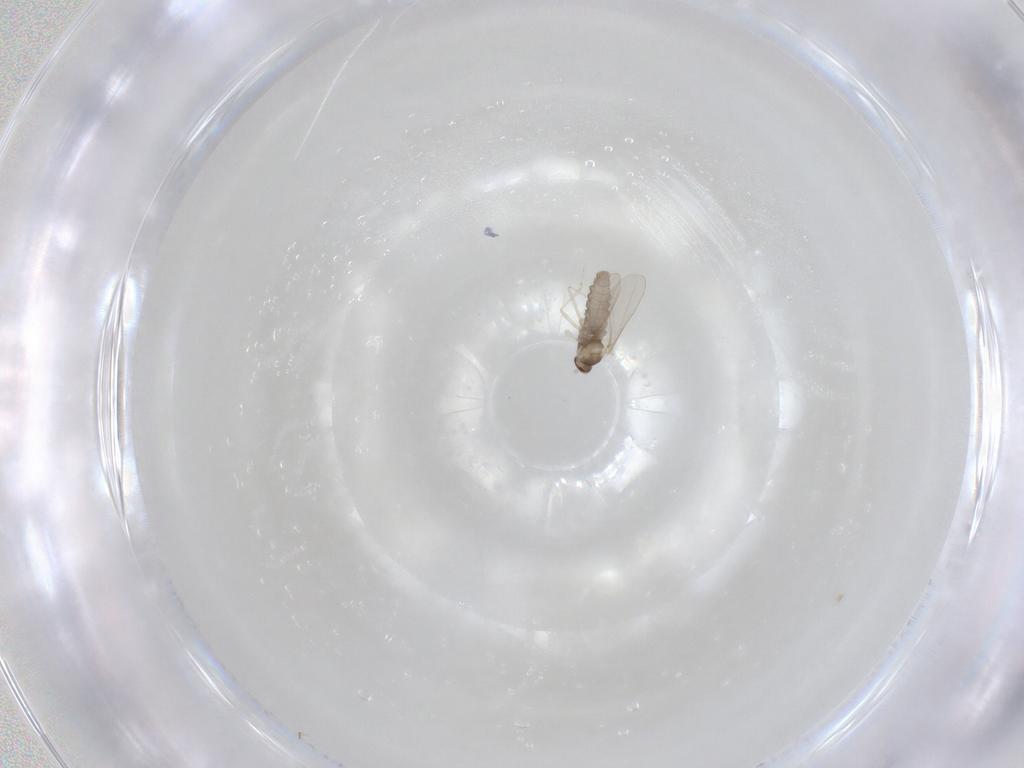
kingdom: Animalia
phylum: Arthropoda
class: Insecta
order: Diptera
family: Cecidomyiidae
